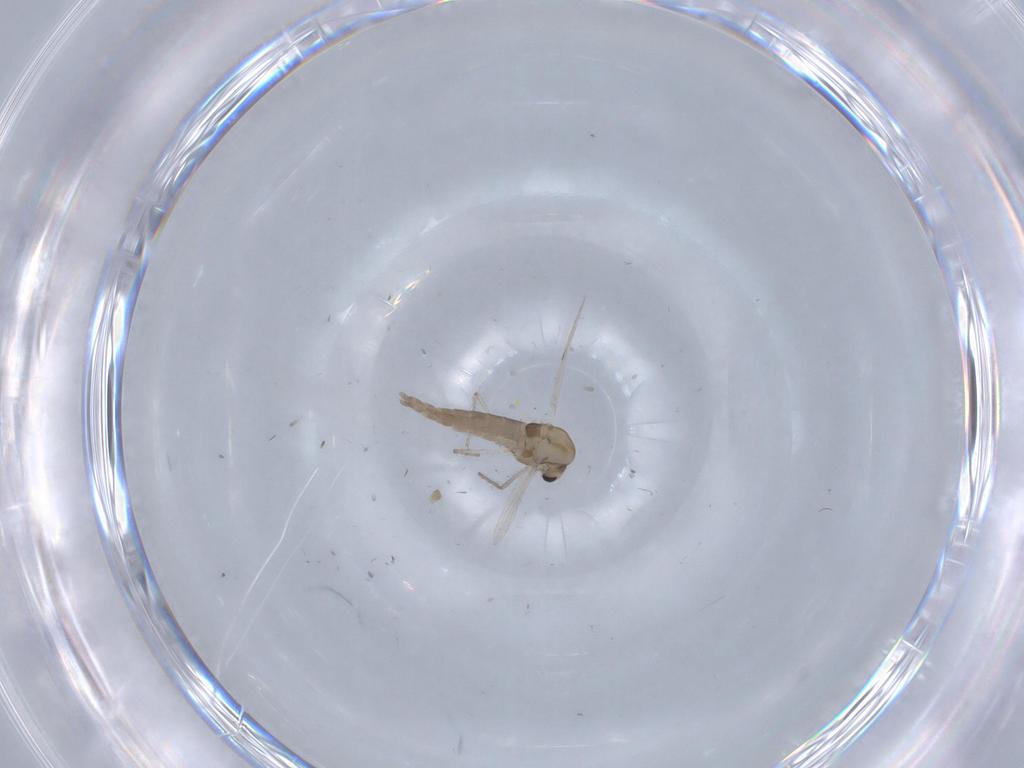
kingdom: Animalia
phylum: Arthropoda
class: Insecta
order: Diptera
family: Chironomidae
